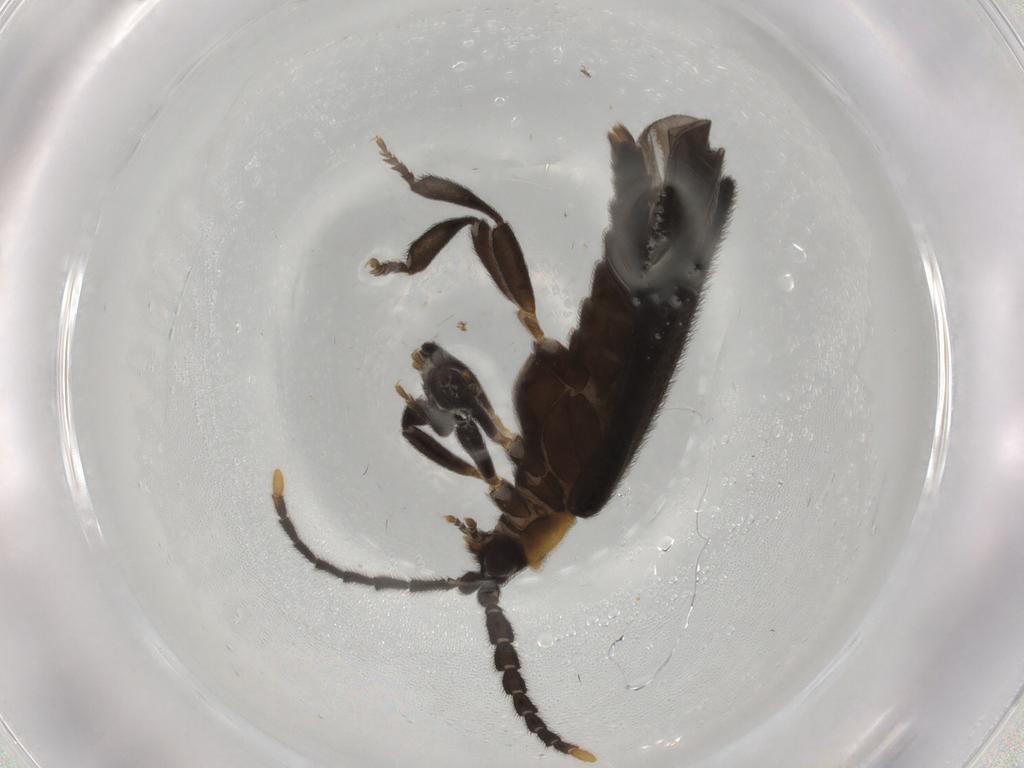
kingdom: Animalia
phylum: Arthropoda
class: Insecta
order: Coleoptera
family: Lycidae
